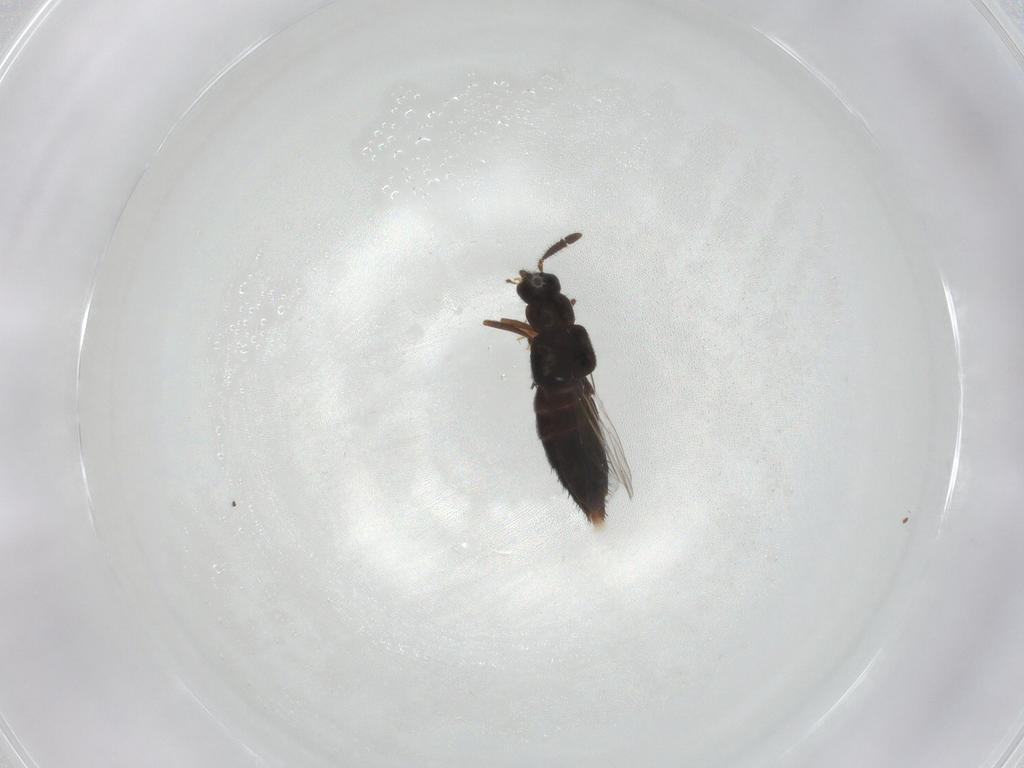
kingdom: Animalia
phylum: Arthropoda
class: Insecta
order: Coleoptera
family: Staphylinidae
